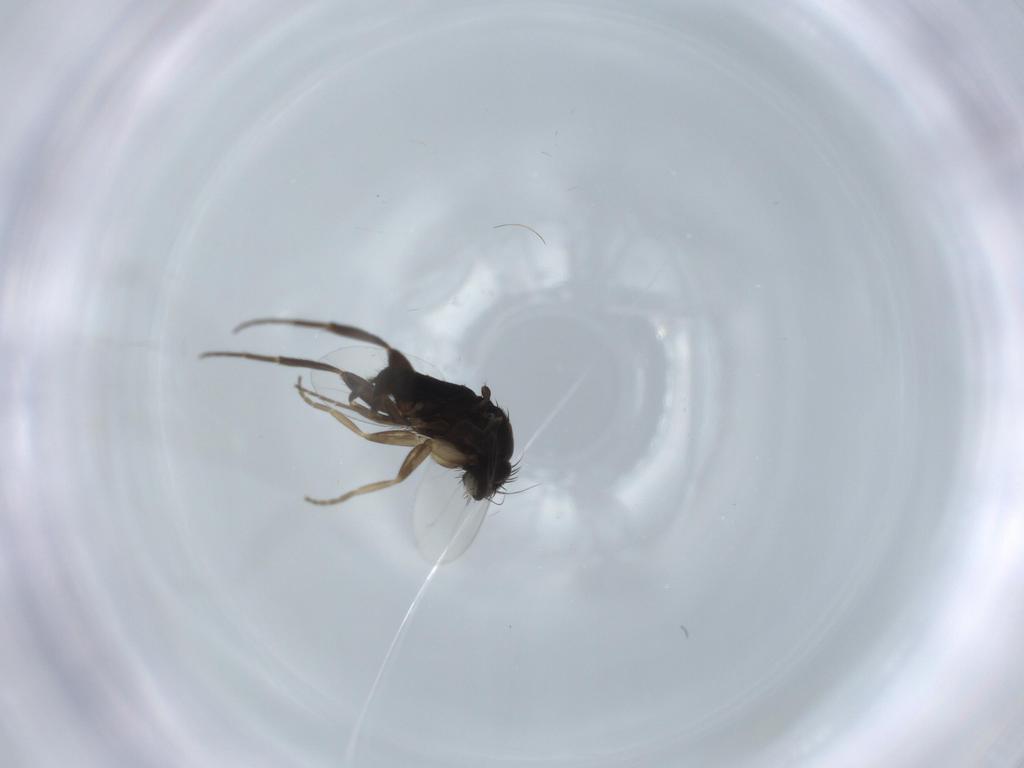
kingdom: Animalia
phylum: Arthropoda
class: Insecta
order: Diptera
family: Phoridae
